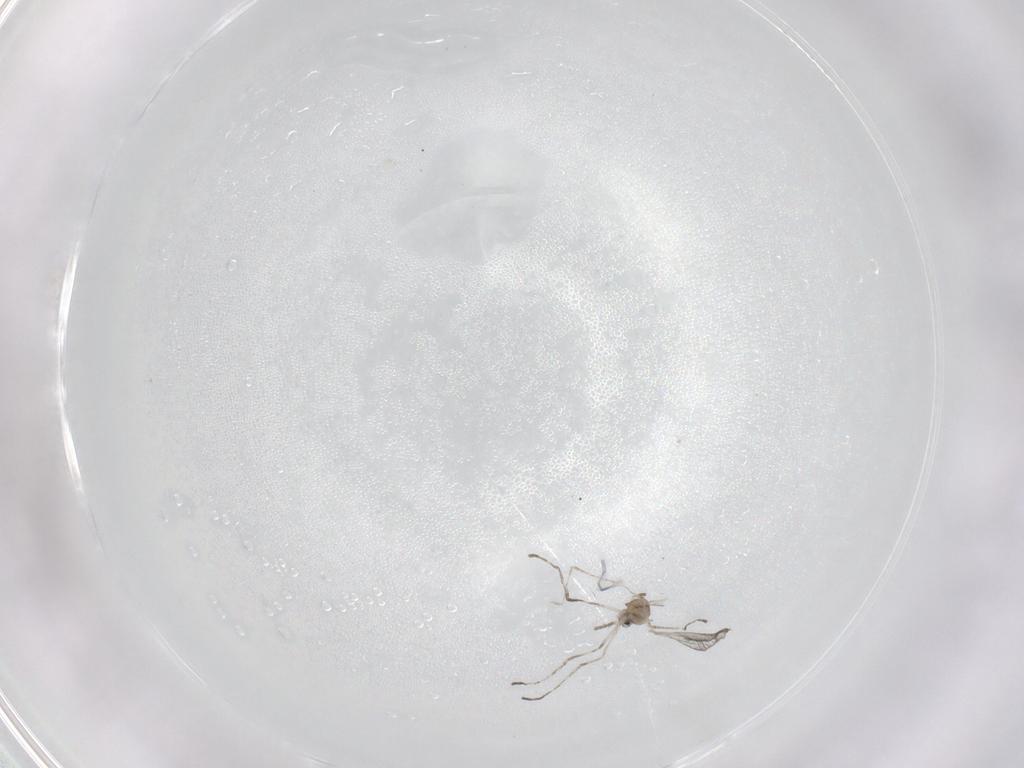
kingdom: Animalia
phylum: Arthropoda
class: Insecta
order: Diptera
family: Cecidomyiidae
